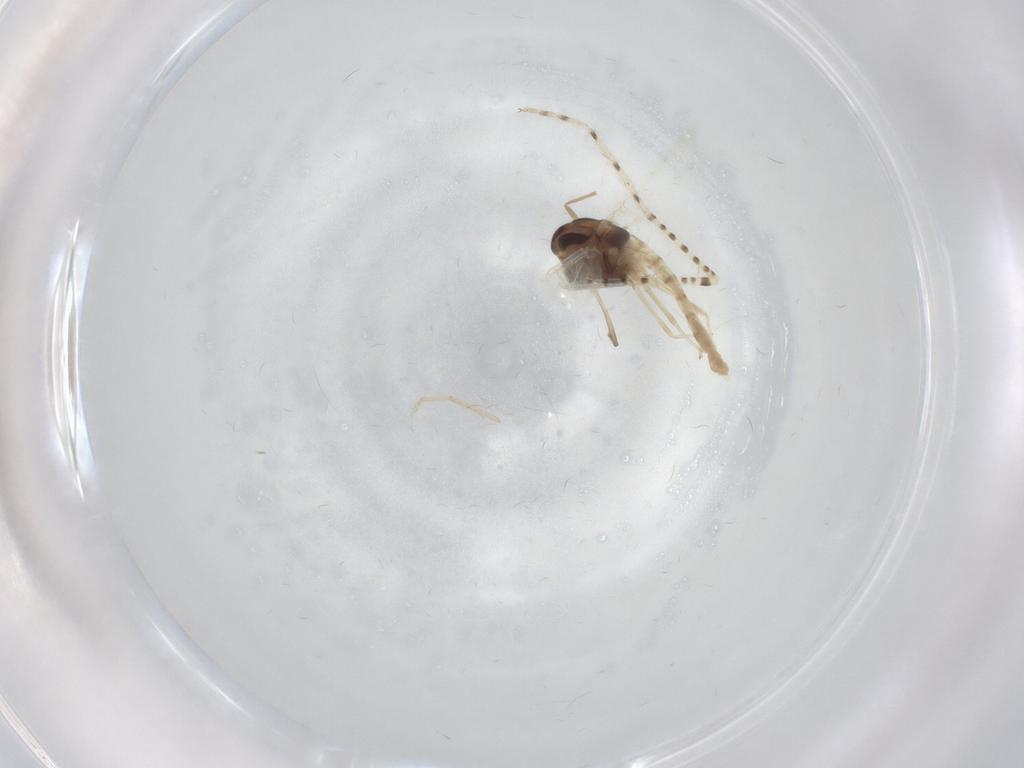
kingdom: Animalia
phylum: Arthropoda
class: Insecta
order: Diptera
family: Chironomidae
